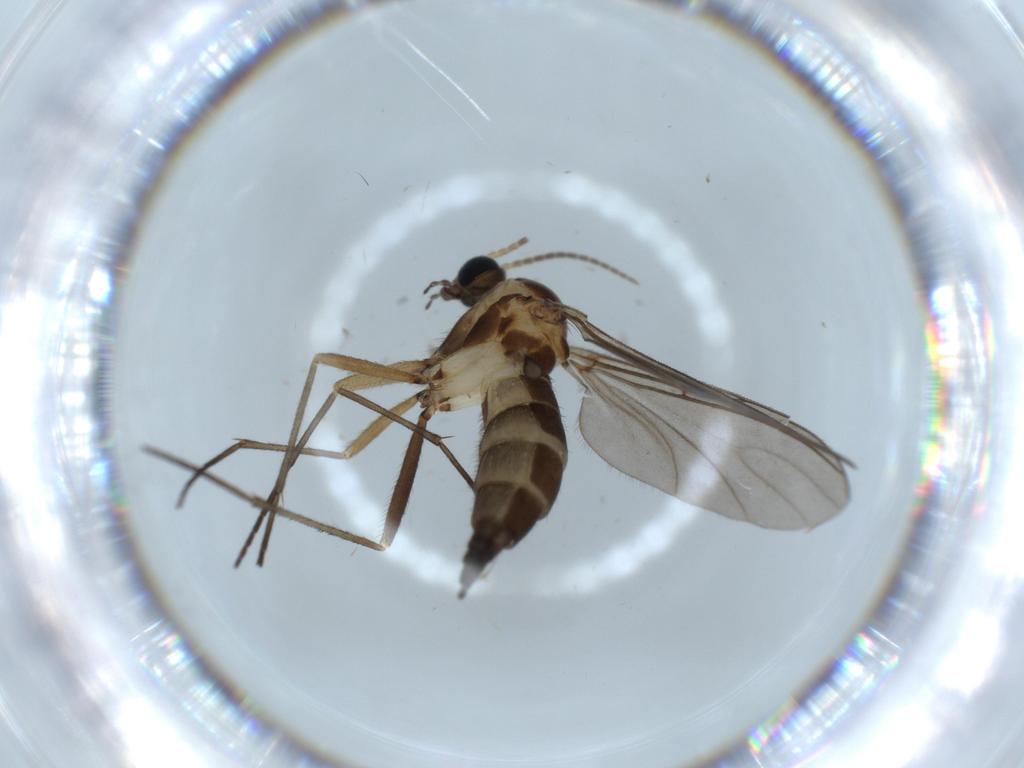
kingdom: Animalia
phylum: Arthropoda
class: Insecta
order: Diptera
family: Sciaridae
